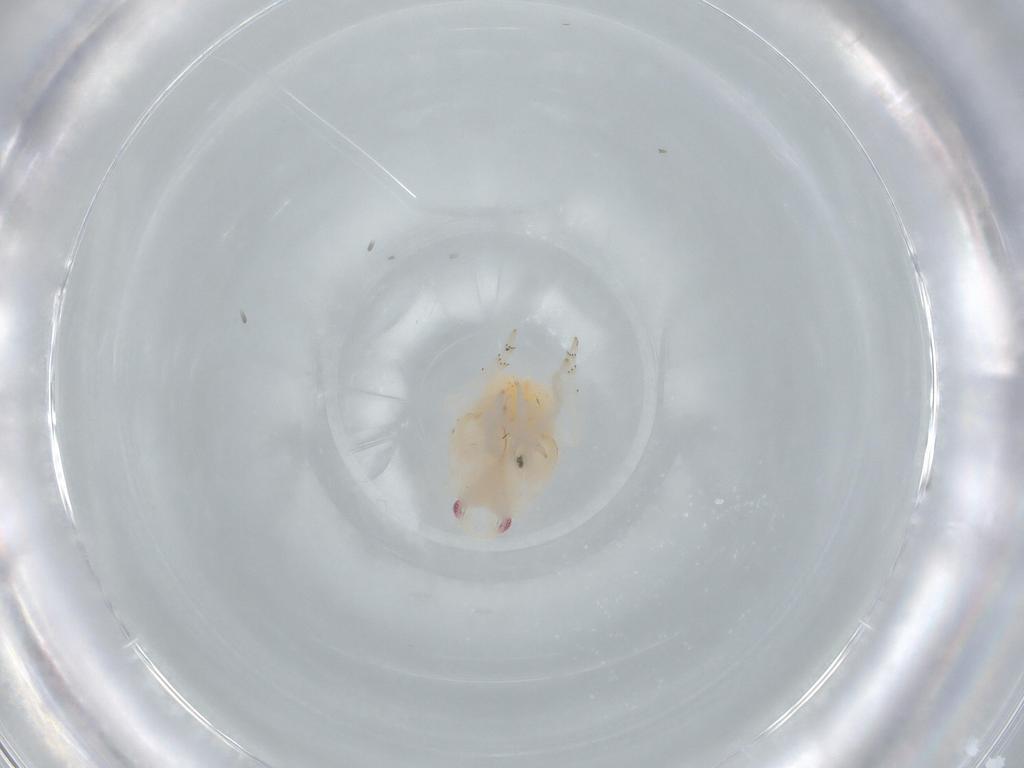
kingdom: Animalia
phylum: Arthropoda
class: Insecta
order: Hemiptera
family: Flatidae
